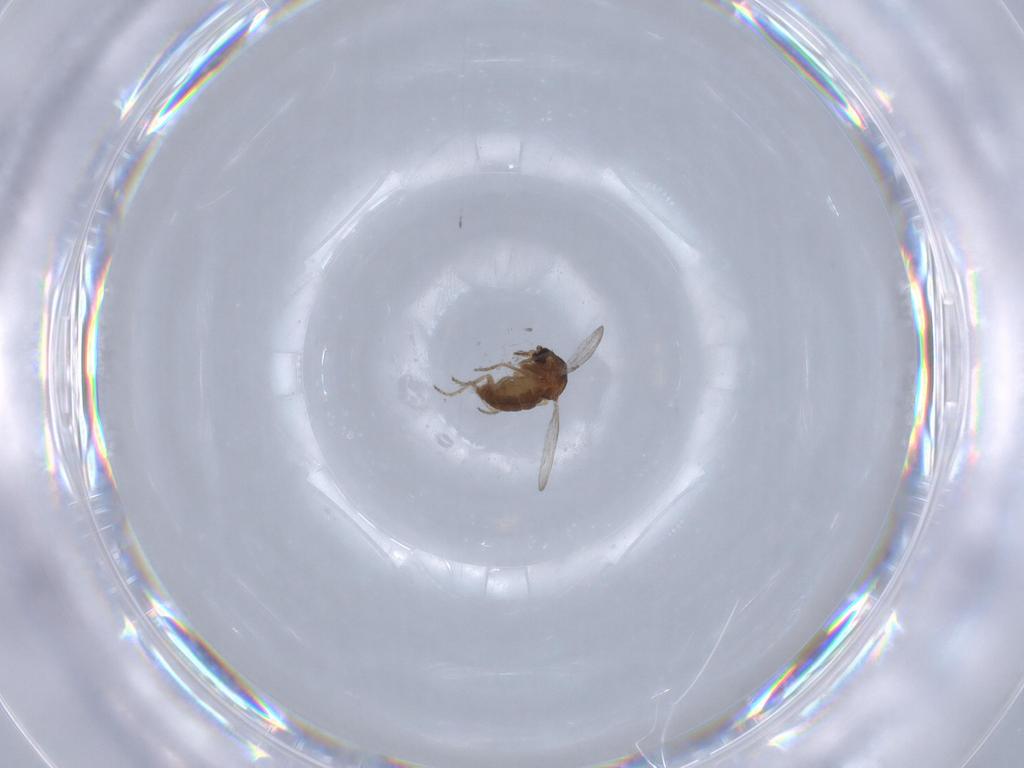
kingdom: Animalia
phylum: Arthropoda
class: Insecta
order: Diptera
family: Ceratopogonidae
